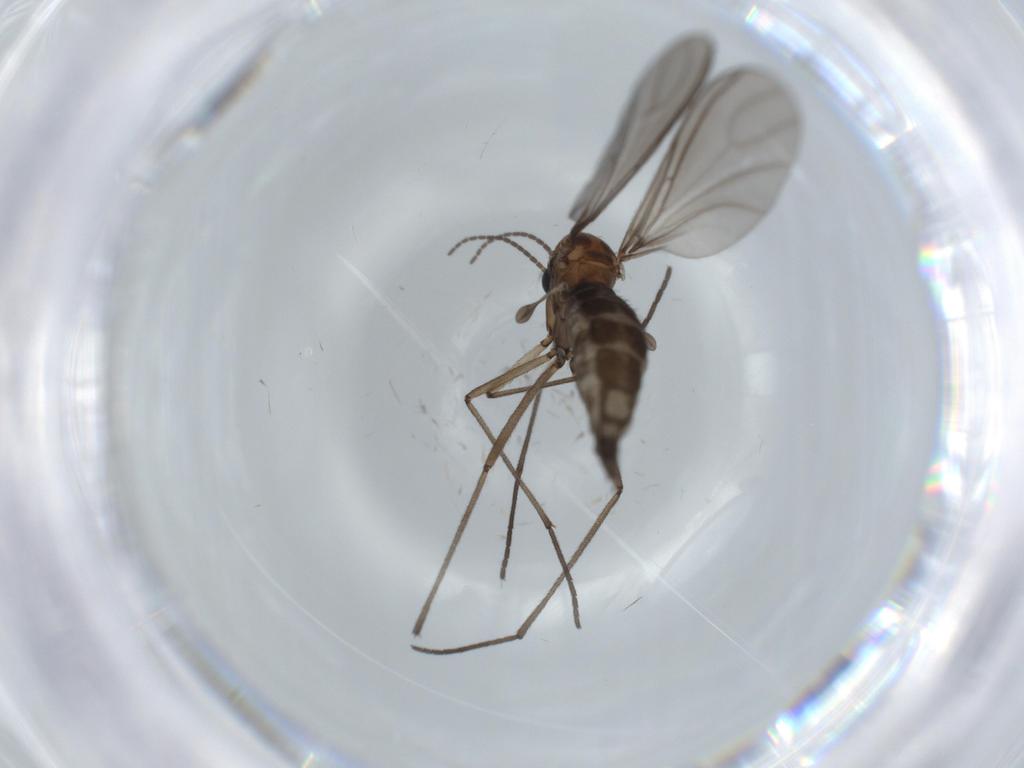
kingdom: Animalia
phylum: Arthropoda
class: Insecta
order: Diptera
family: Sciaridae
